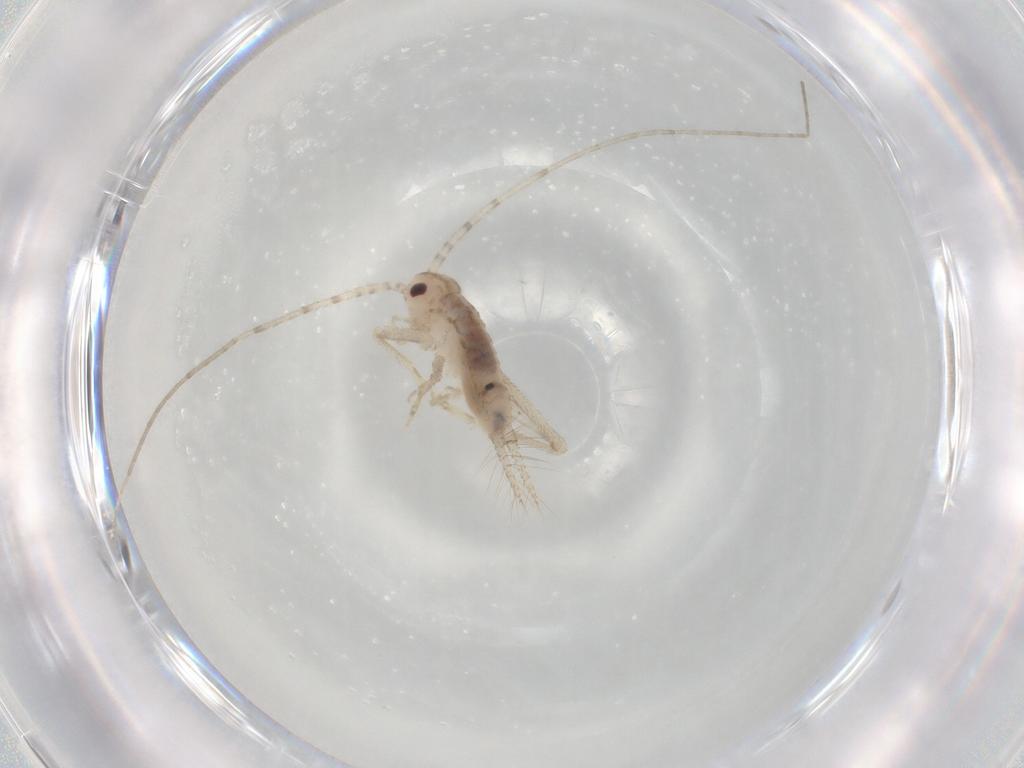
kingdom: Animalia
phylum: Arthropoda
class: Insecta
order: Orthoptera
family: Trigonidiidae
